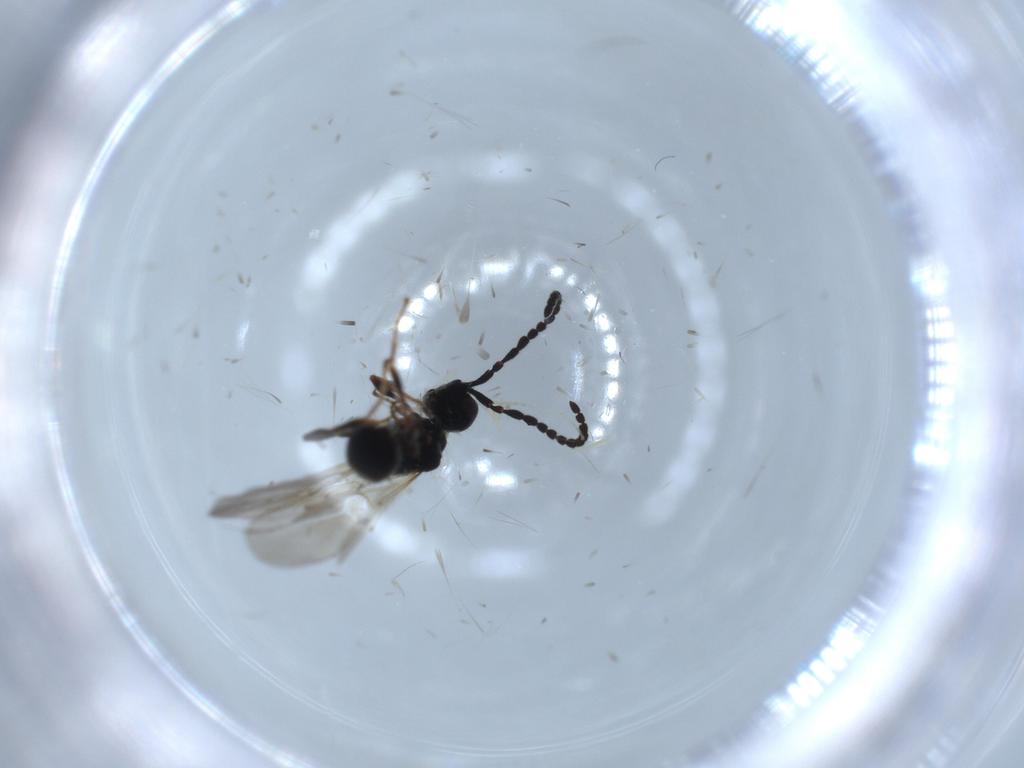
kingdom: Animalia
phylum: Arthropoda
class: Insecta
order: Hymenoptera
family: Diapriidae
